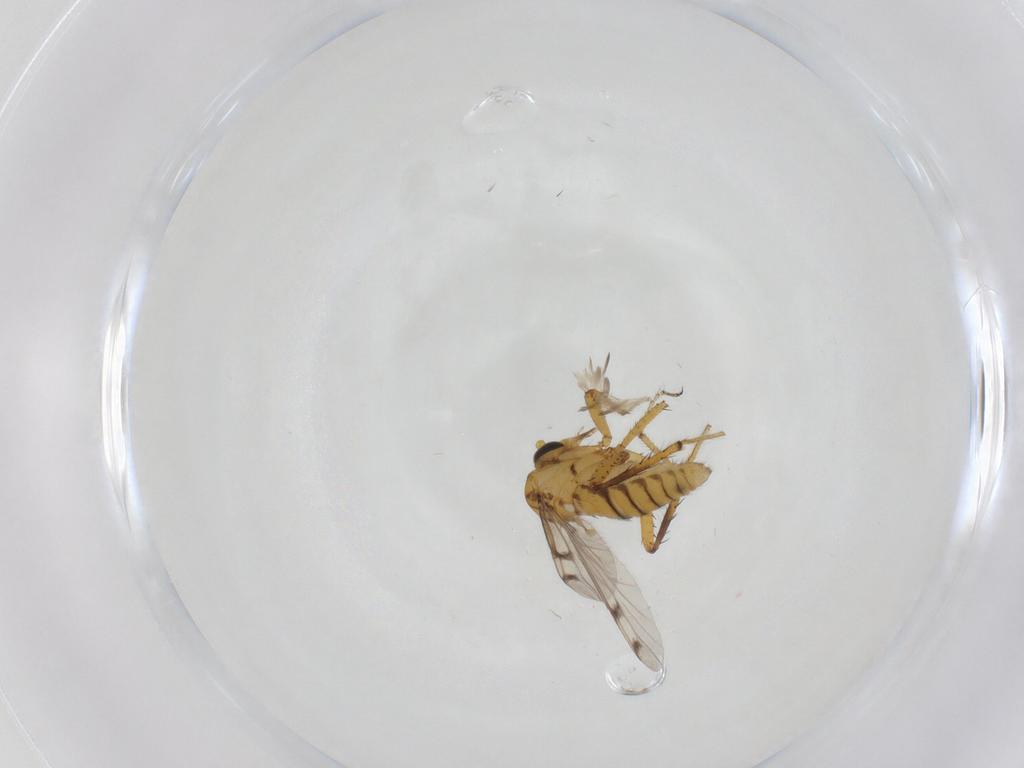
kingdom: Animalia
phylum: Arthropoda
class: Insecta
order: Diptera
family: Ceratopogonidae
